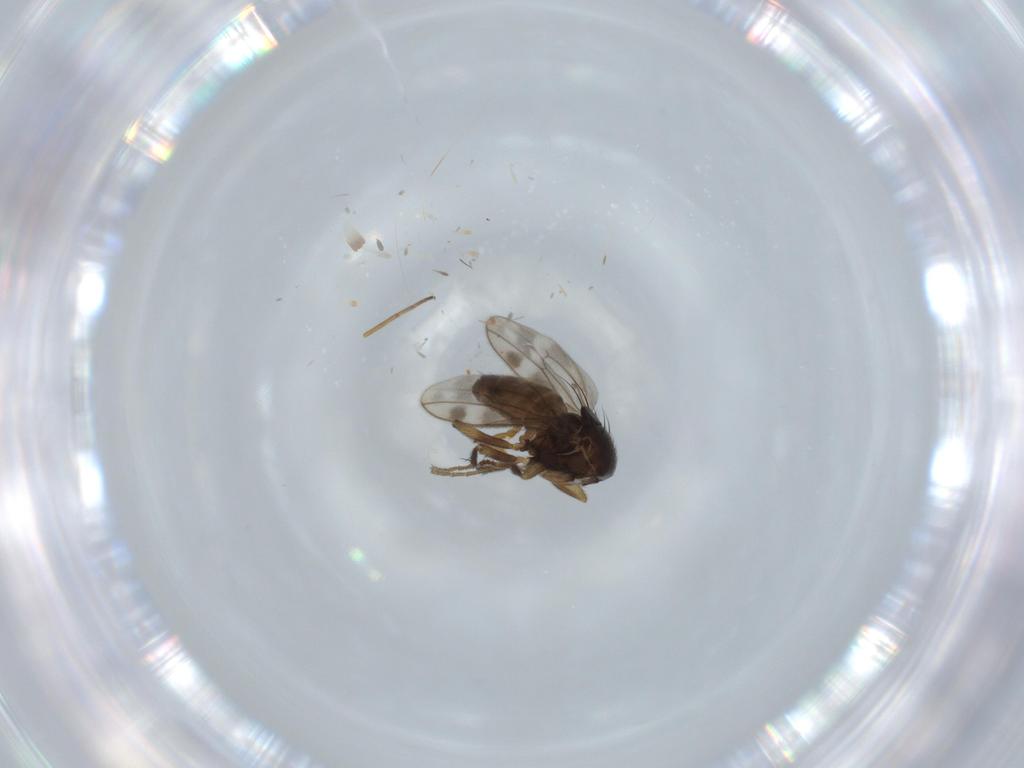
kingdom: Animalia
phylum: Arthropoda
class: Insecta
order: Diptera
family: Sphaeroceridae
